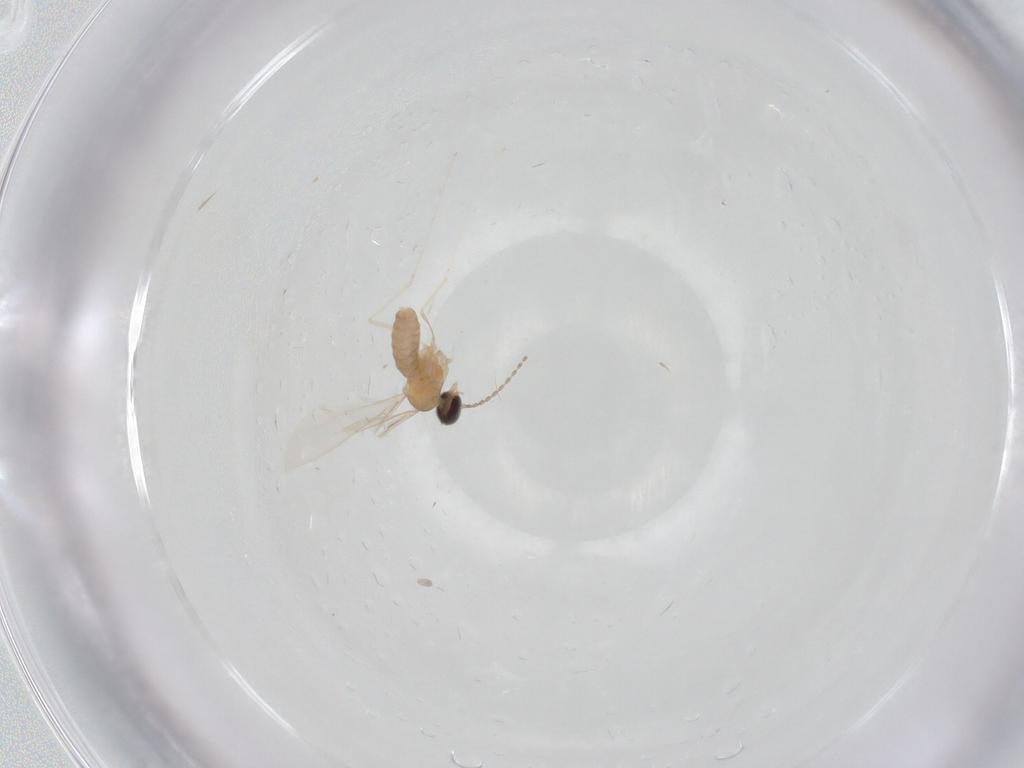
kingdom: Animalia
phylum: Arthropoda
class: Insecta
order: Diptera
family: Cecidomyiidae
